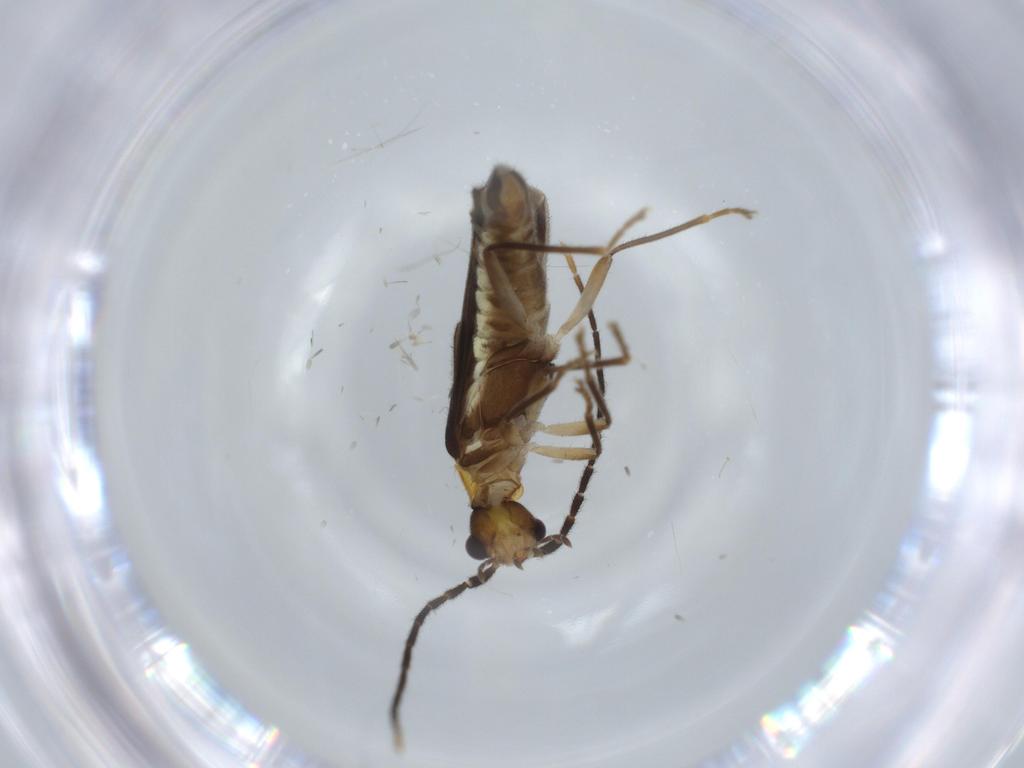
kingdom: Animalia
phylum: Arthropoda
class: Insecta
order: Coleoptera
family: Cantharidae
